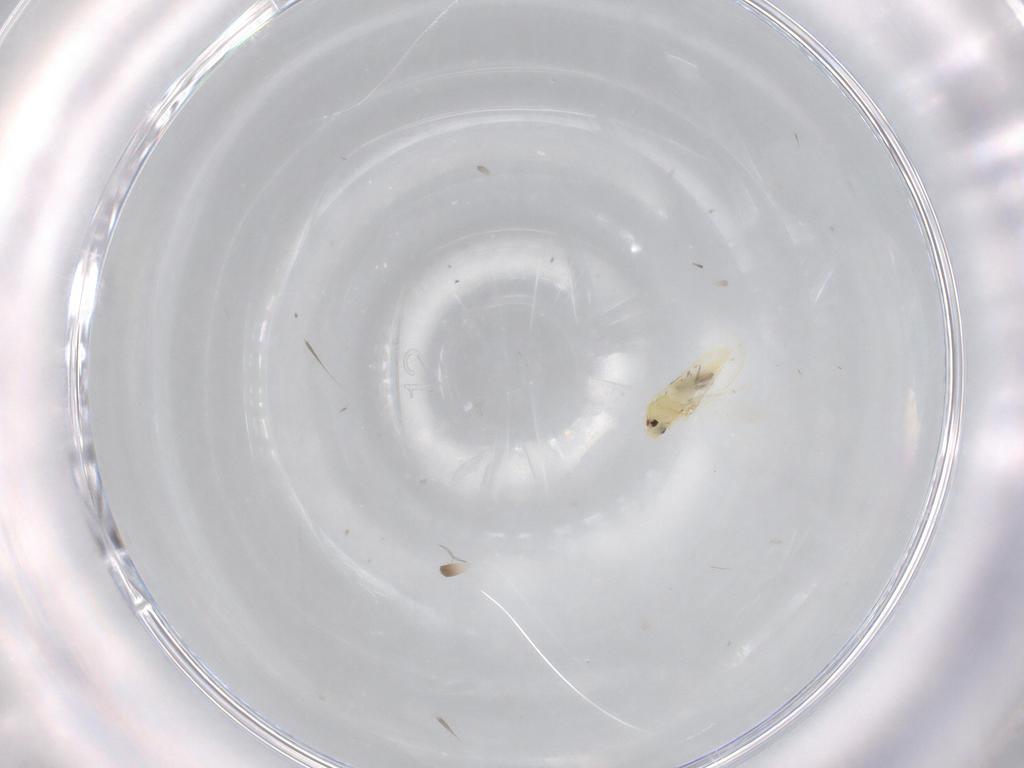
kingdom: Animalia
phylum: Arthropoda
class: Insecta
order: Hemiptera
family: Aleyrodidae
